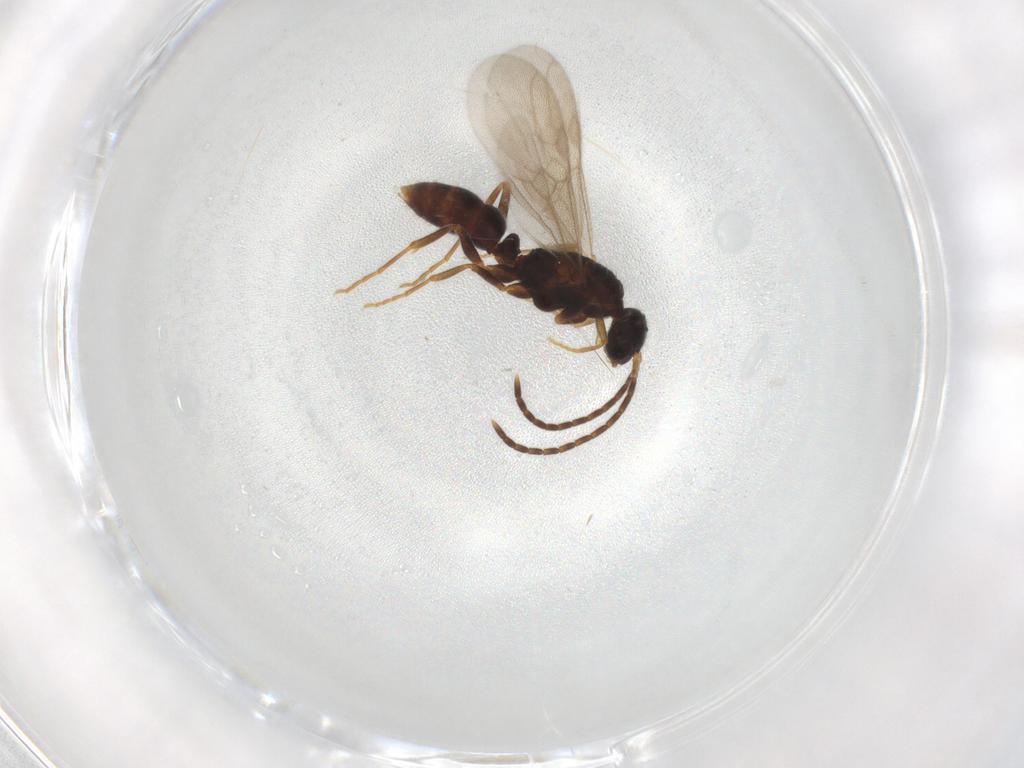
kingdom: Animalia
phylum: Arthropoda
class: Insecta
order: Hymenoptera
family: Formicidae
